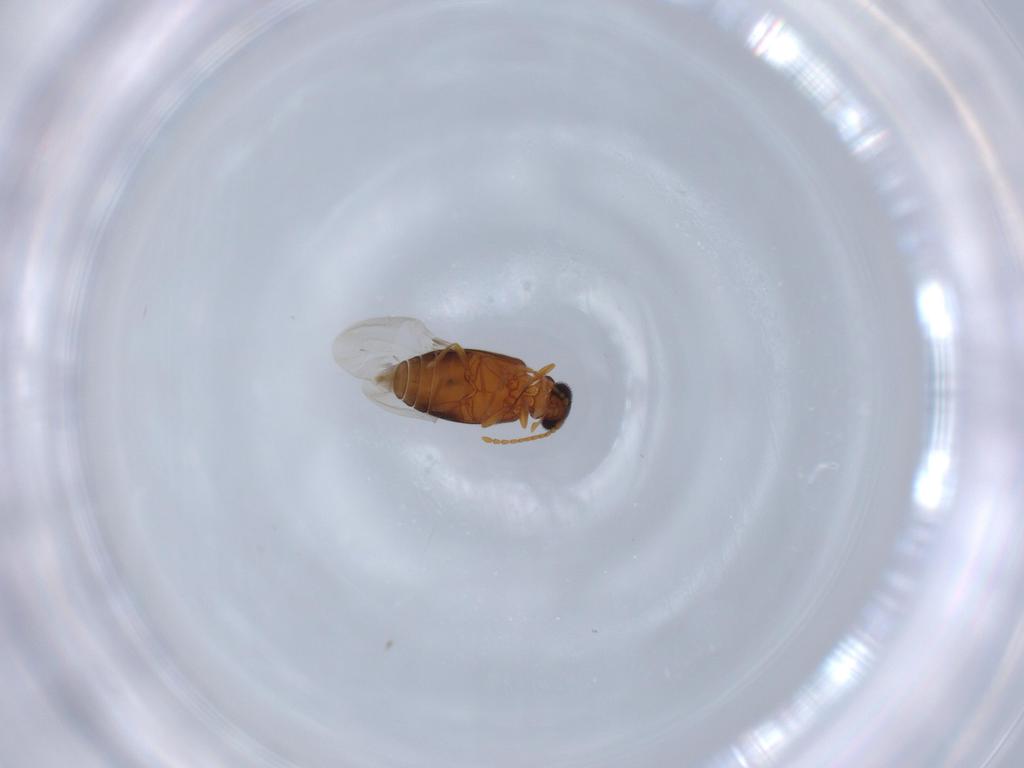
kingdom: Animalia
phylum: Arthropoda
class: Insecta
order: Coleoptera
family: Aderidae
